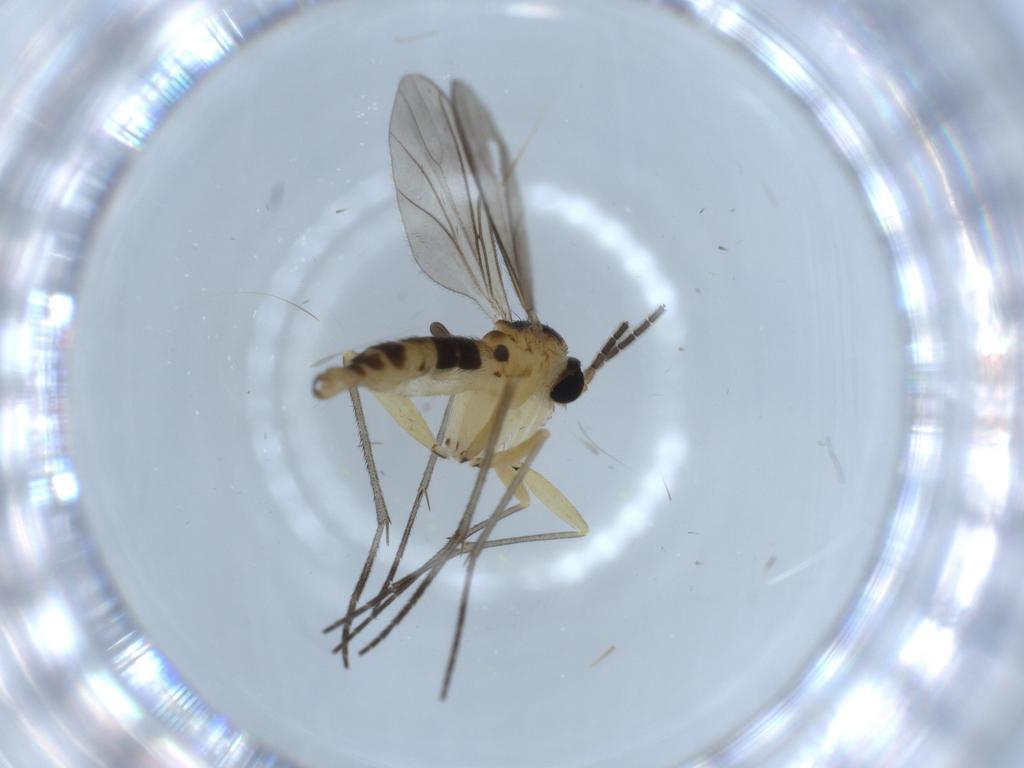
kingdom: Animalia
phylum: Arthropoda
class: Insecta
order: Diptera
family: Sciaridae
